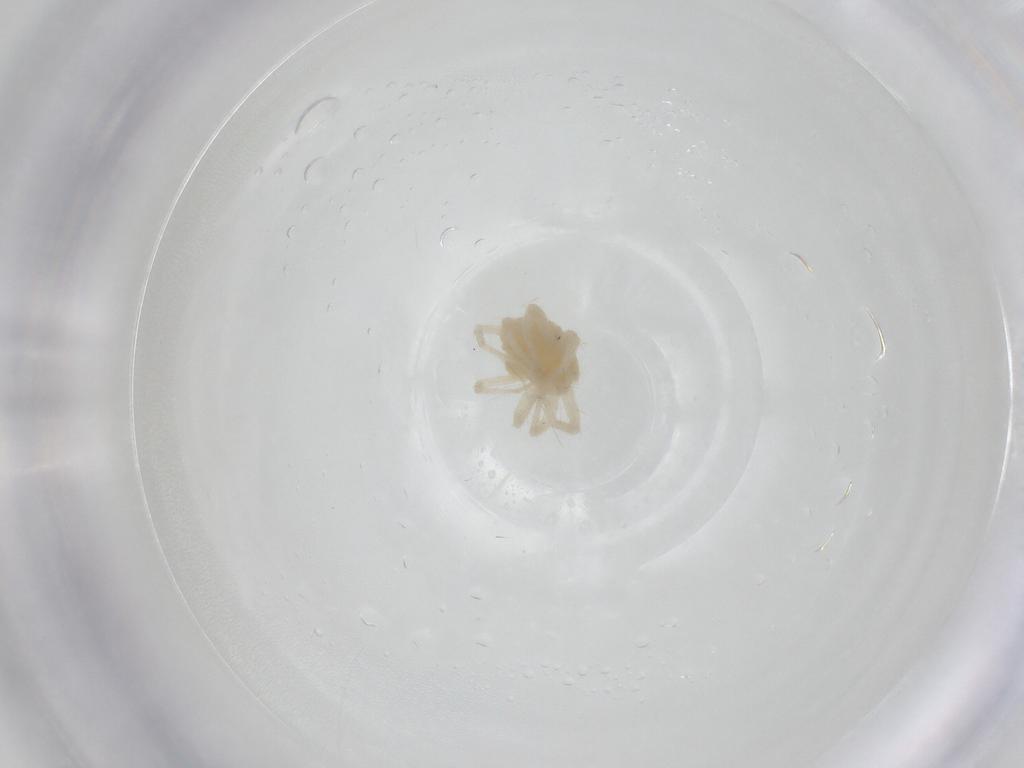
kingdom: Animalia
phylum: Arthropoda
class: Arachnida
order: Trombidiformes
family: Anystidae
